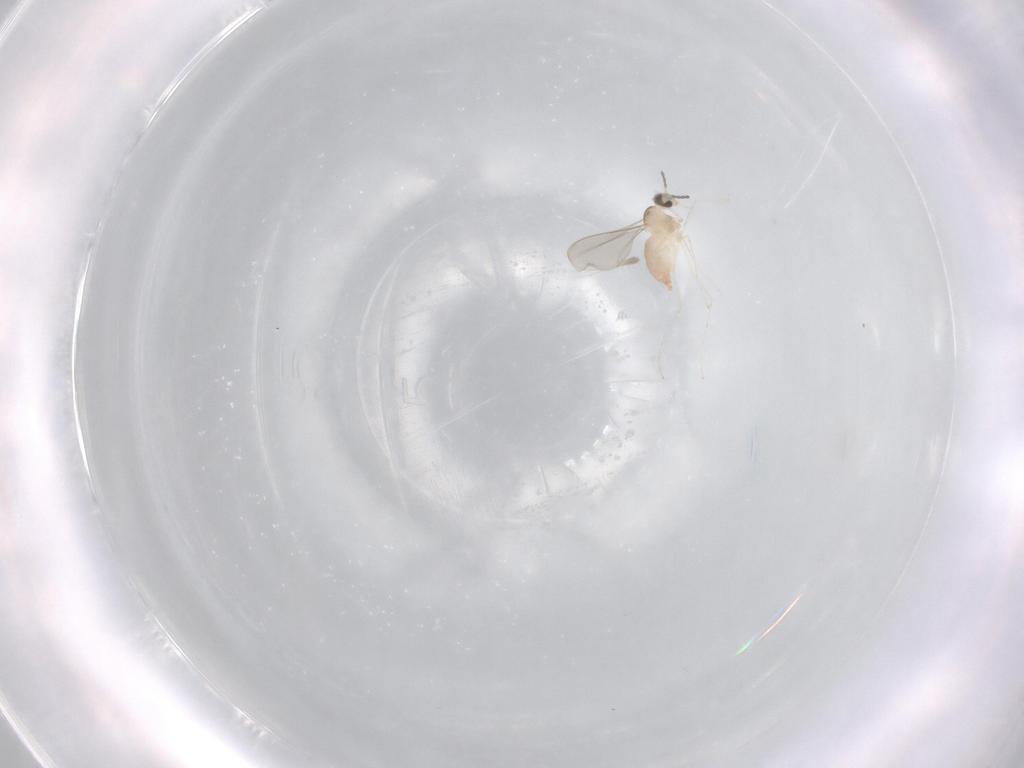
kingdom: Animalia
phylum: Arthropoda
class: Insecta
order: Diptera
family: Cecidomyiidae
